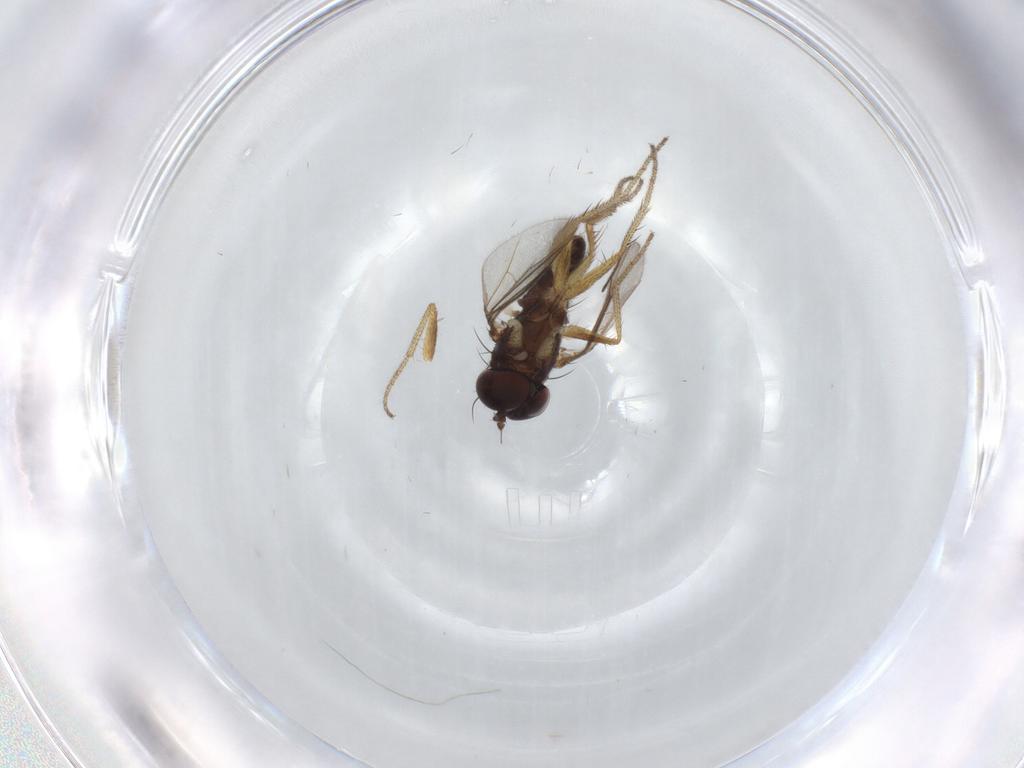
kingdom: Animalia
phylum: Arthropoda
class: Insecta
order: Diptera
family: Dolichopodidae
